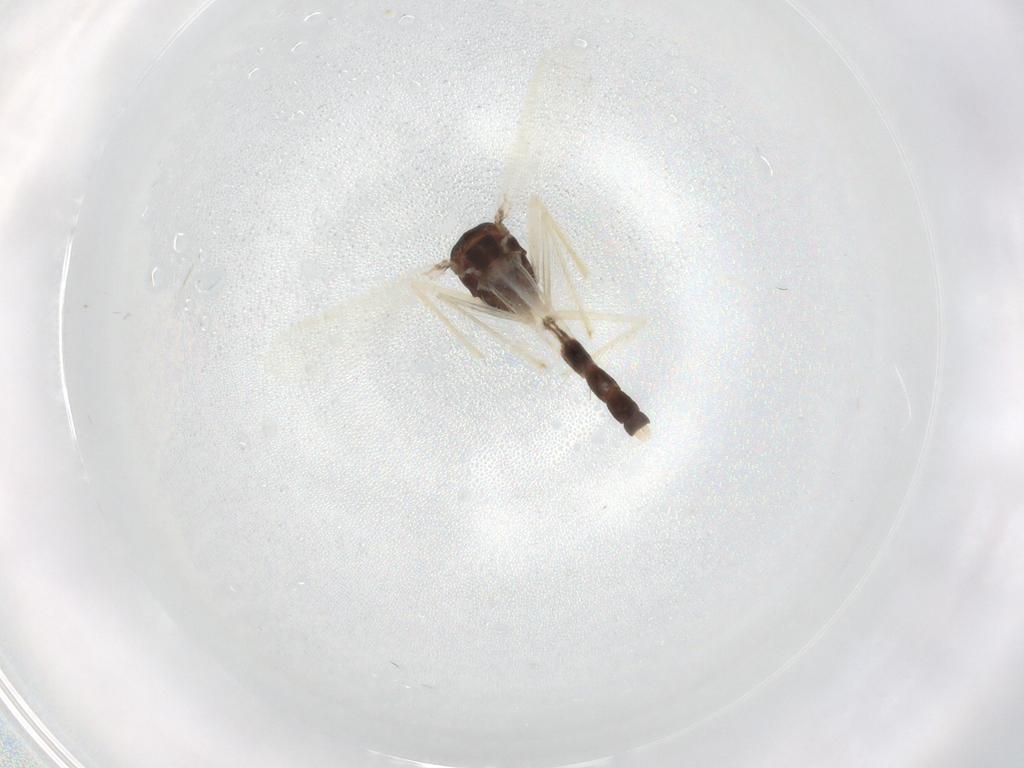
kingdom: Animalia
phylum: Arthropoda
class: Insecta
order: Diptera
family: Chironomidae
